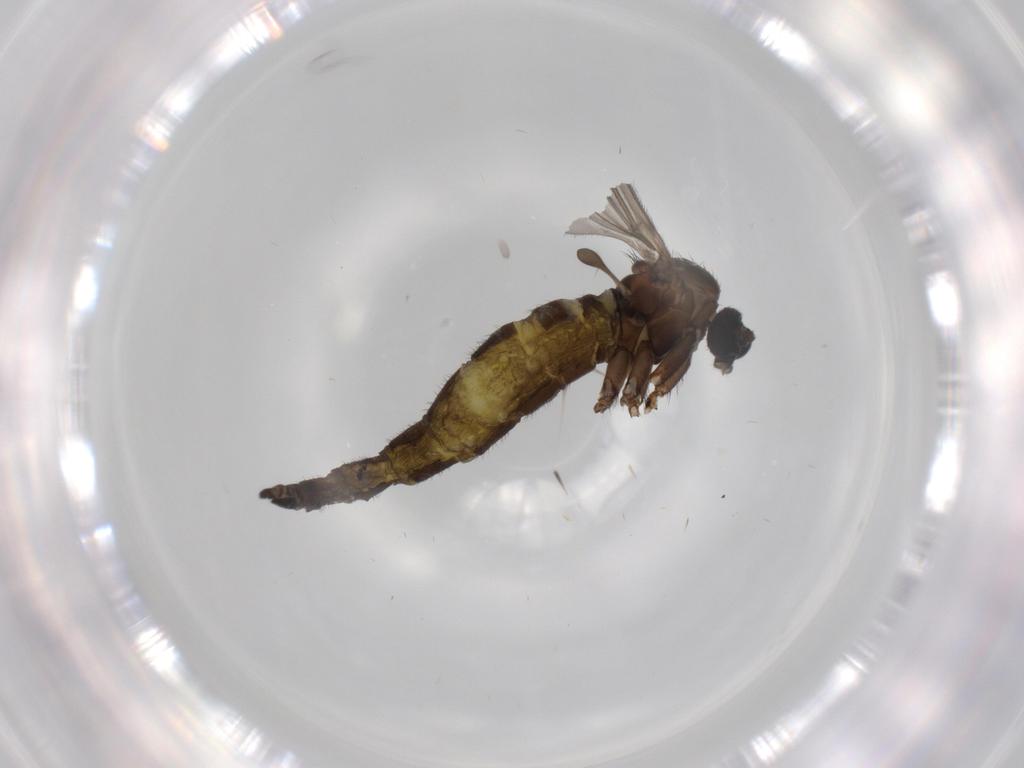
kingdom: Animalia
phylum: Arthropoda
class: Insecta
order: Diptera
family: Sciaridae
